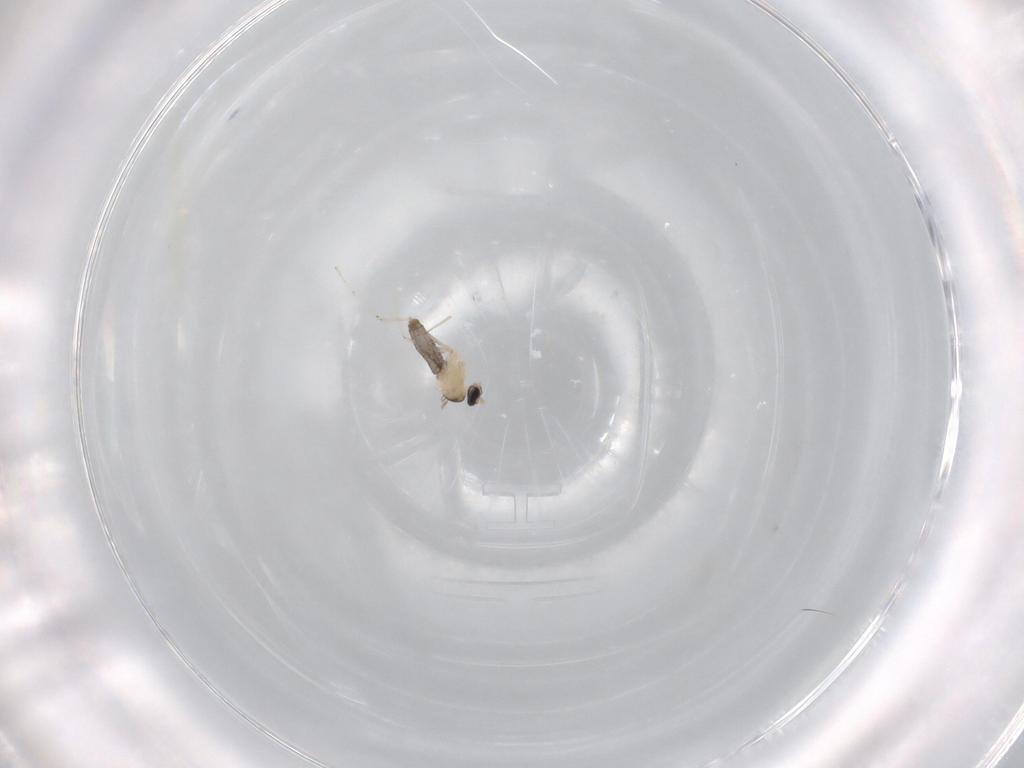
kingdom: Animalia
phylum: Arthropoda
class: Insecta
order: Diptera
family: Cecidomyiidae
